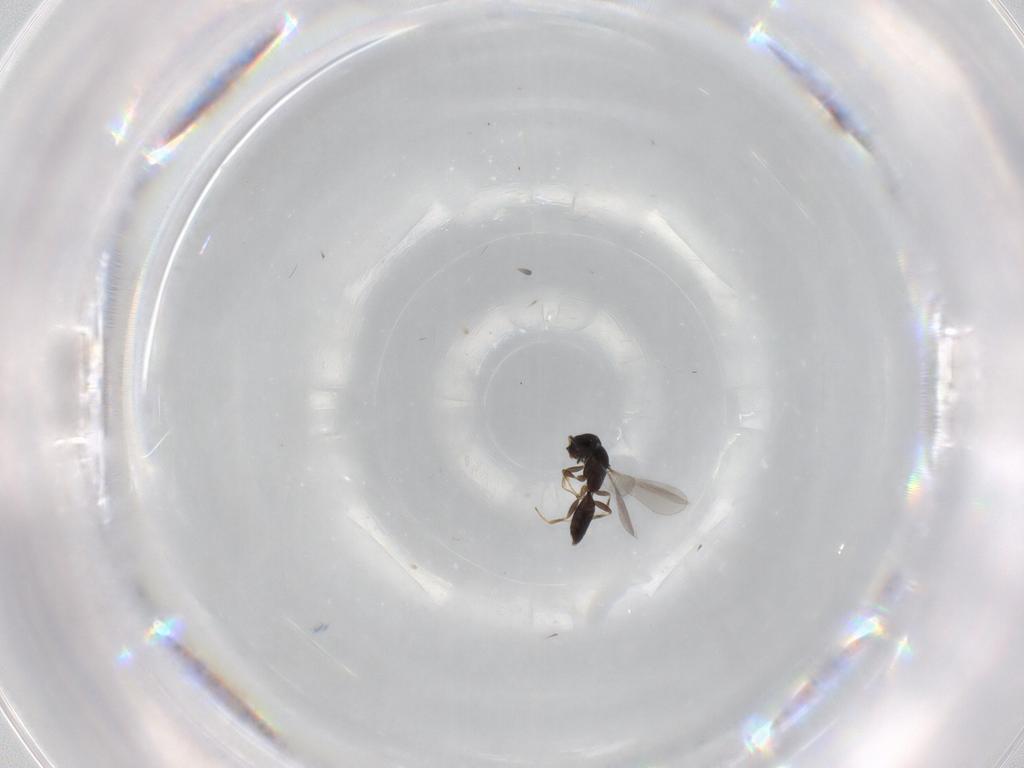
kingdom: Animalia
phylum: Arthropoda
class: Insecta
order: Hymenoptera
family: Bethylidae
